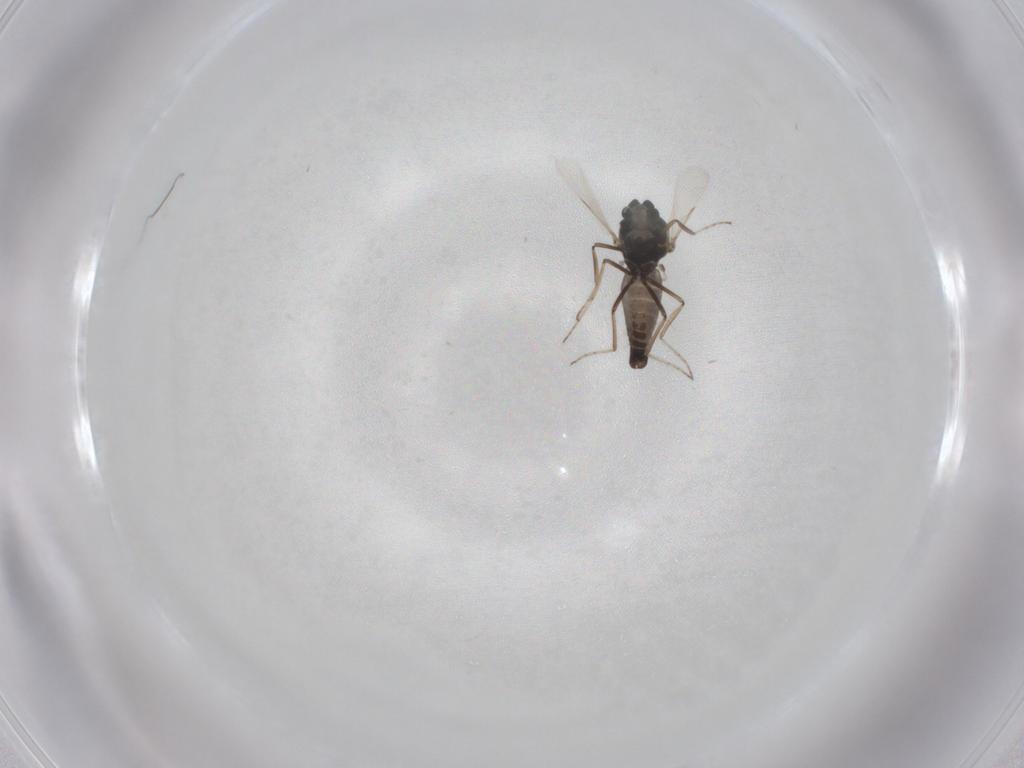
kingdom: Animalia
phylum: Arthropoda
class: Insecta
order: Diptera
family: Ceratopogonidae
